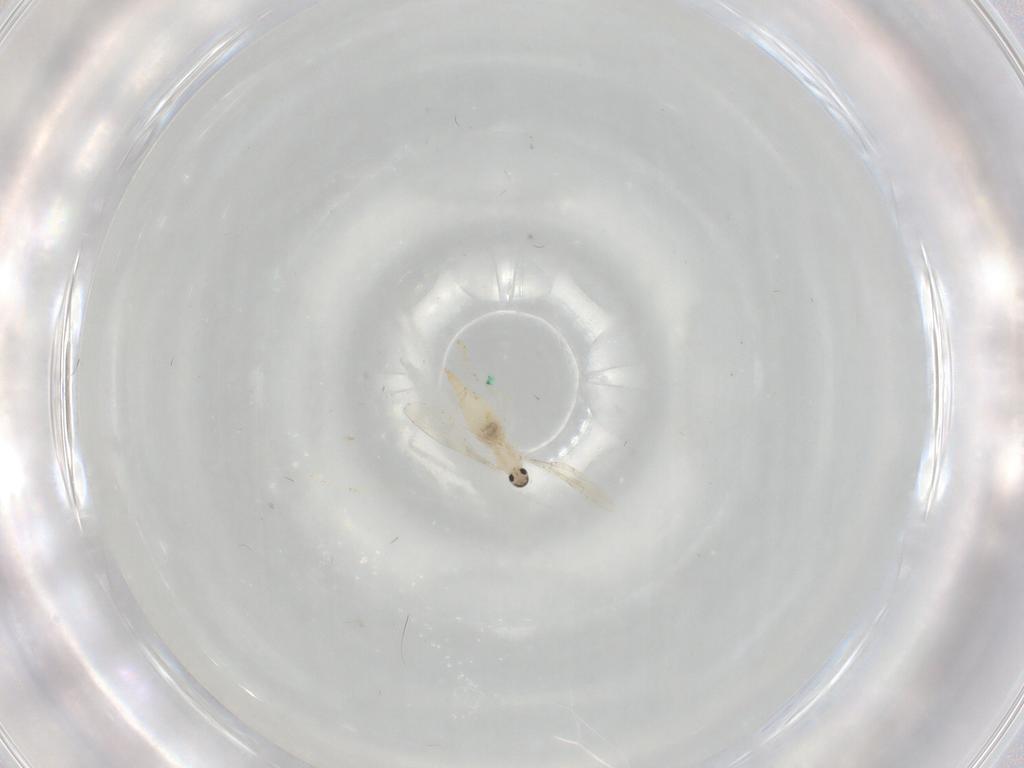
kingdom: Animalia
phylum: Arthropoda
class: Insecta
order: Diptera
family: Cecidomyiidae
